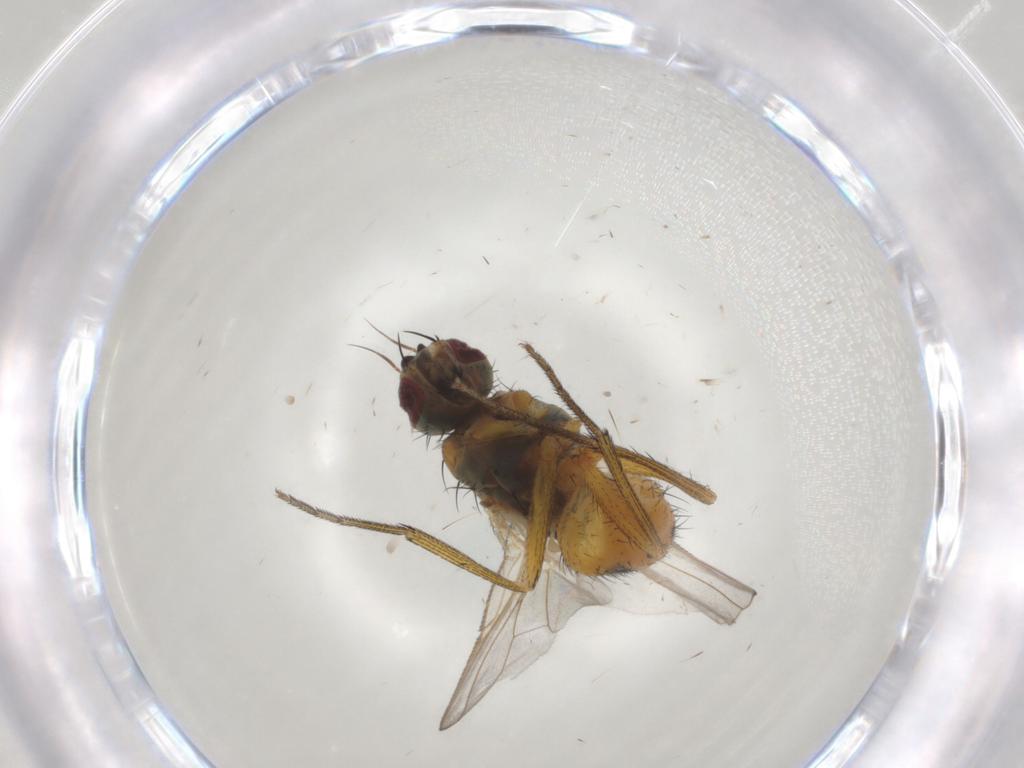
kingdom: Animalia
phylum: Arthropoda
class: Insecta
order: Diptera
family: Muscidae
